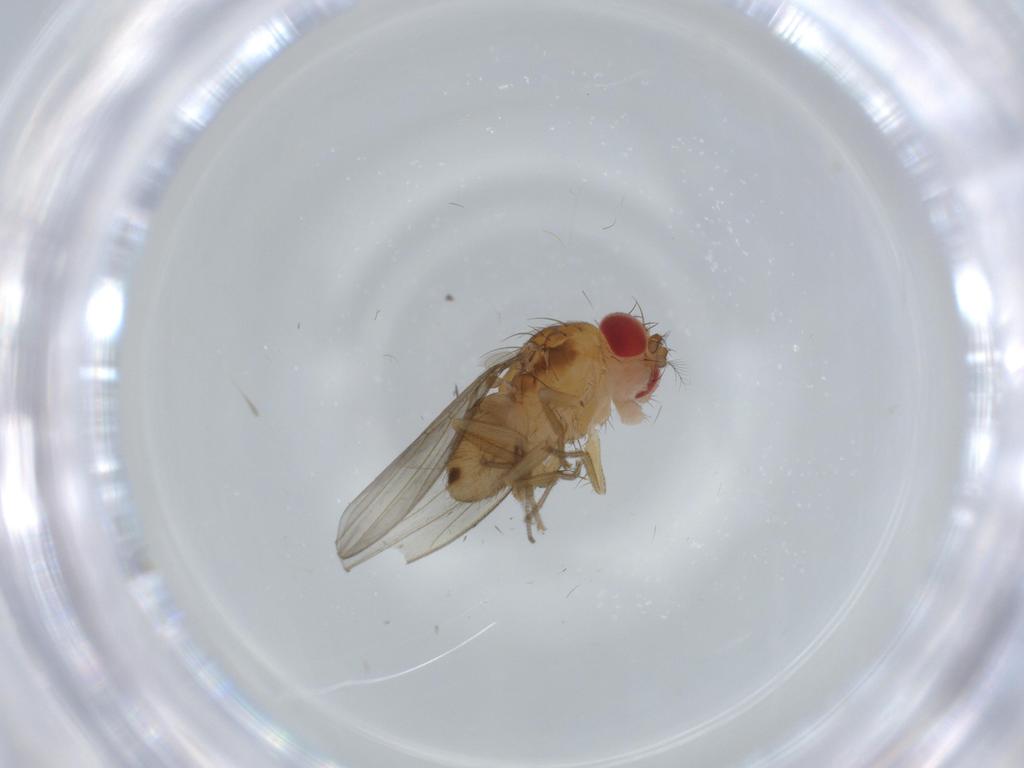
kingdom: Animalia
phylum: Arthropoda
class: Insecta
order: Diptera
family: Drosophilidae
